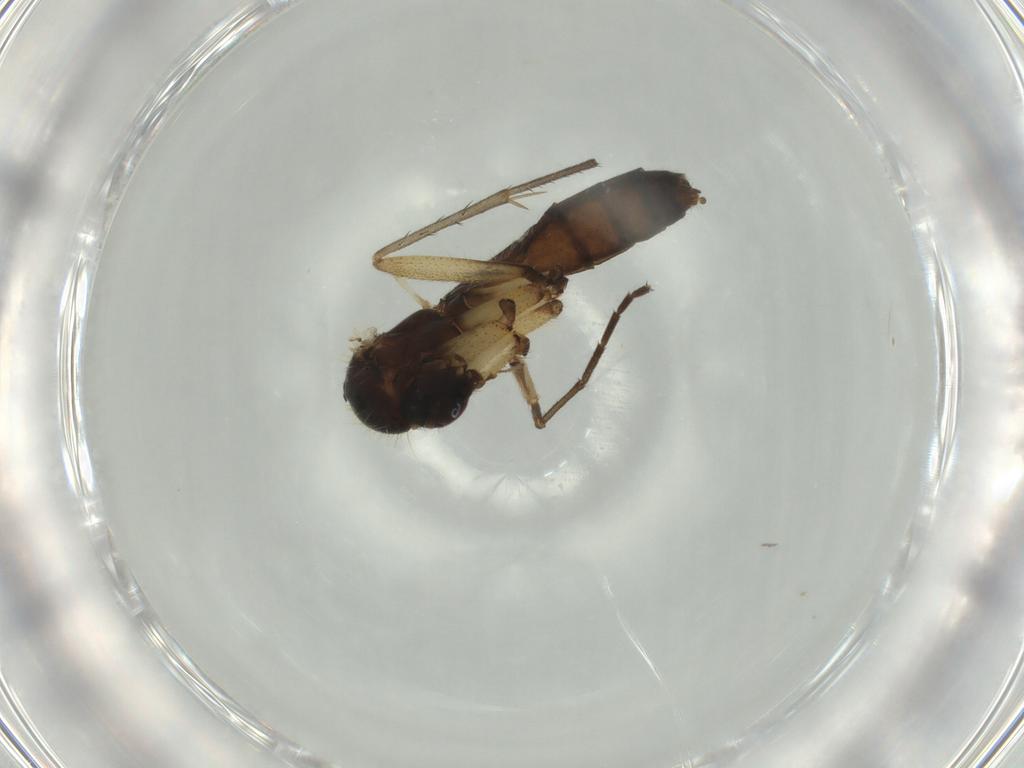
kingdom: Animalia
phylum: Arthropoda
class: Insecta
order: Diptera
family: Mycetophilidae
